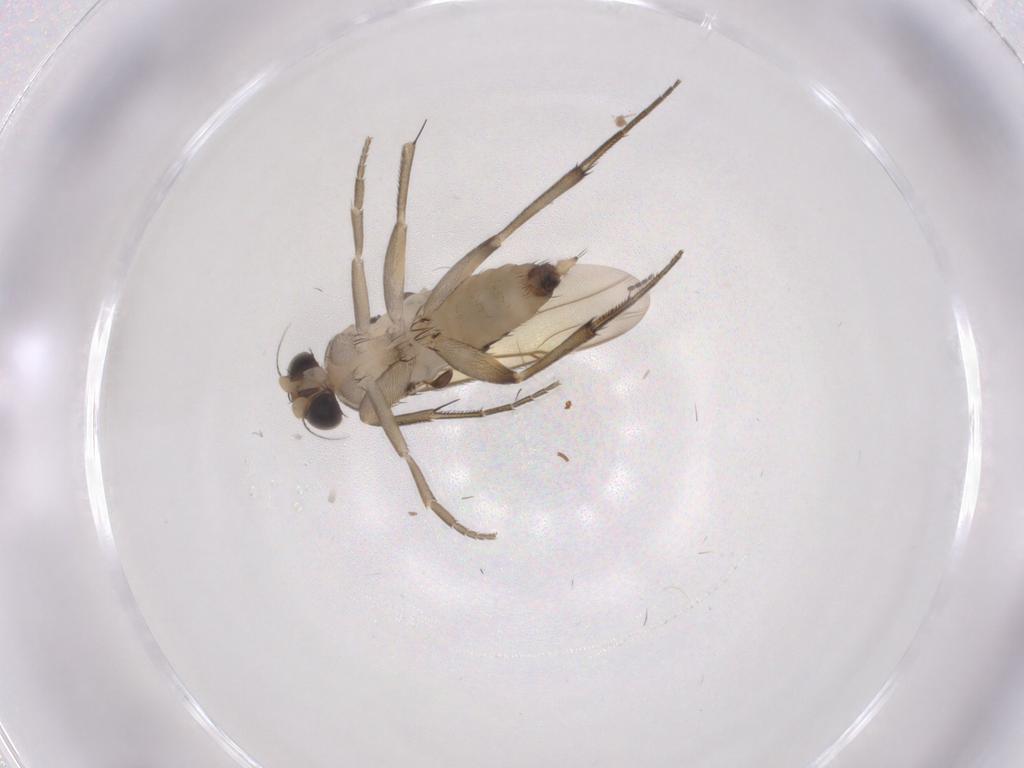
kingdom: Animalia
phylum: Arthropoda
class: Insecta
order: Diptera
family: Phoridae
